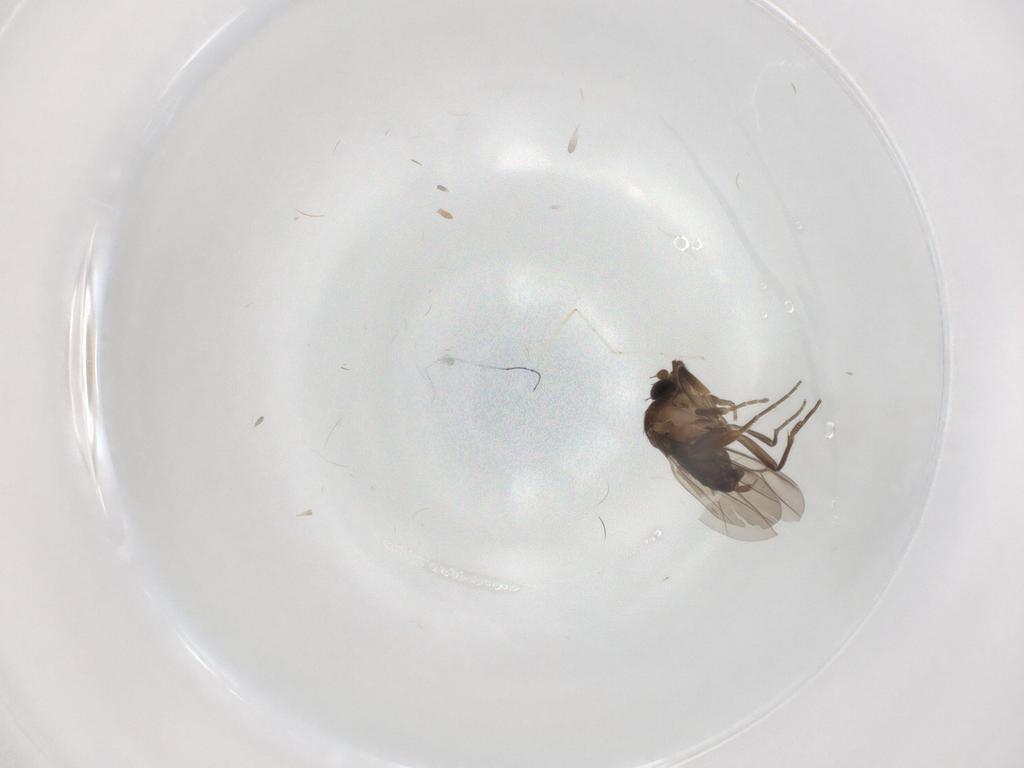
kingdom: Animalia
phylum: Arthropoda
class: Insecta
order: Diptera
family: Phoridae
